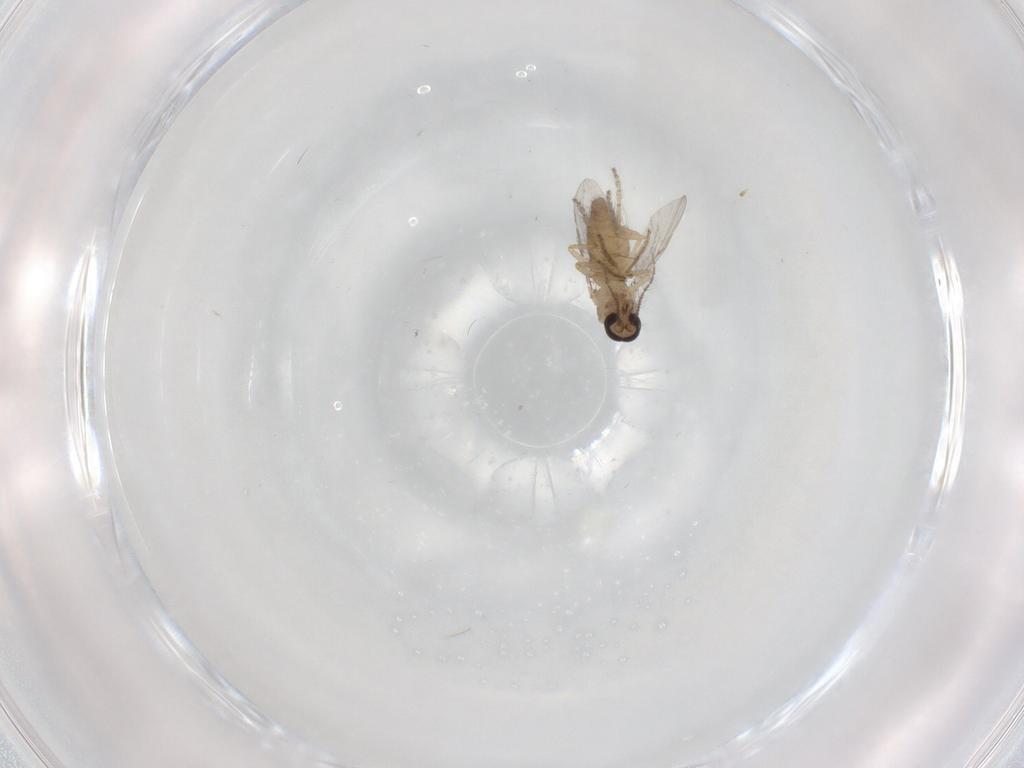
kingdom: Animalia
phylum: Arthropoda
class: Insecta
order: Diptera
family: Ceratopogonidae
